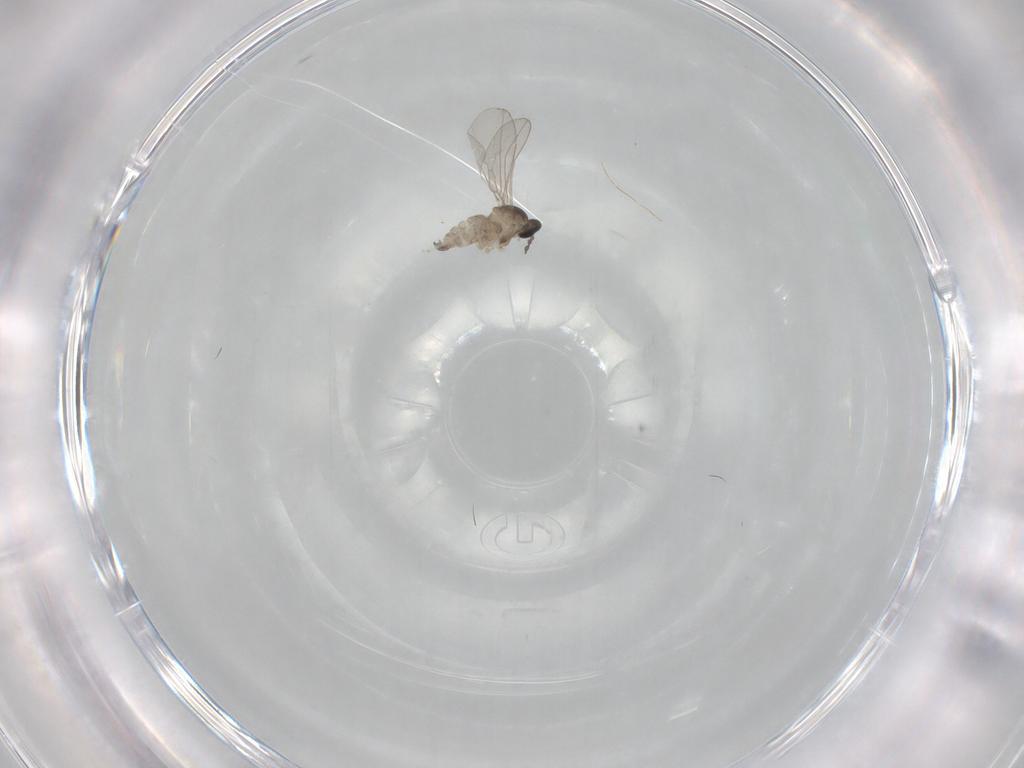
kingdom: Animalia
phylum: Arthropoda
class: Insecta
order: Diptera
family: Cecidomyiidae
